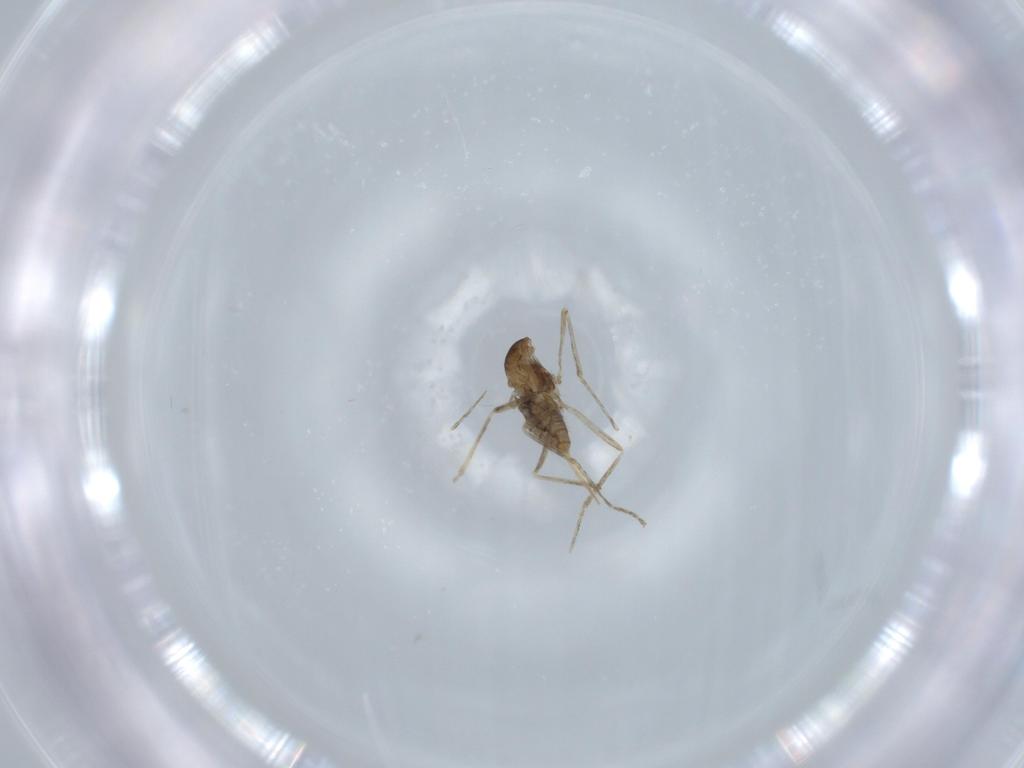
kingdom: Animalia
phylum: Arthropoda
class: Insecta
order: Diptera
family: Cecidomyiidae
